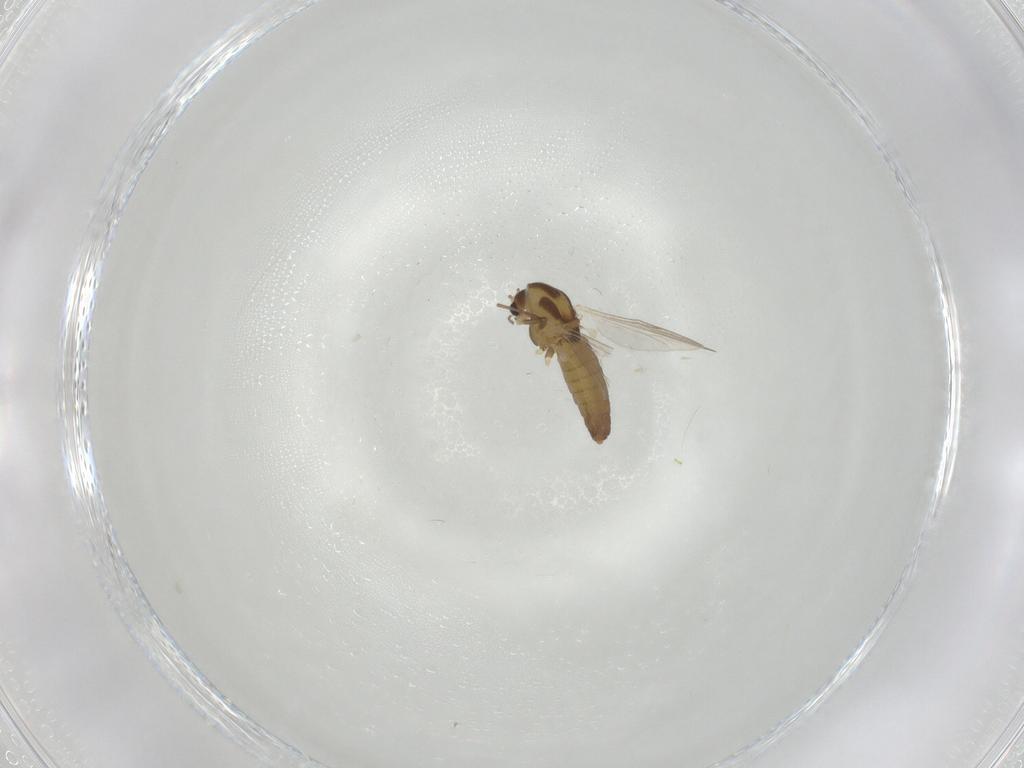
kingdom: Animalia
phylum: Arthropoda
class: Insecta
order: Diptera
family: Chironomidae
